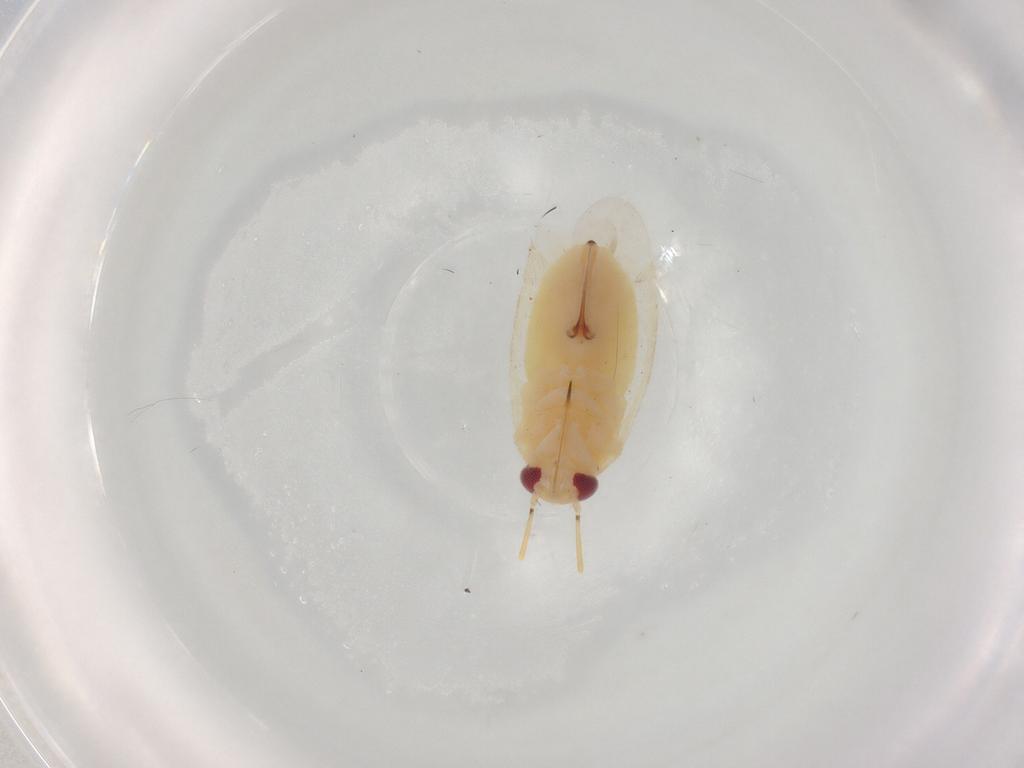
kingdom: Animalia
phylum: Arthropoda
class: Insecta
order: Hemiptera
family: Miridae
